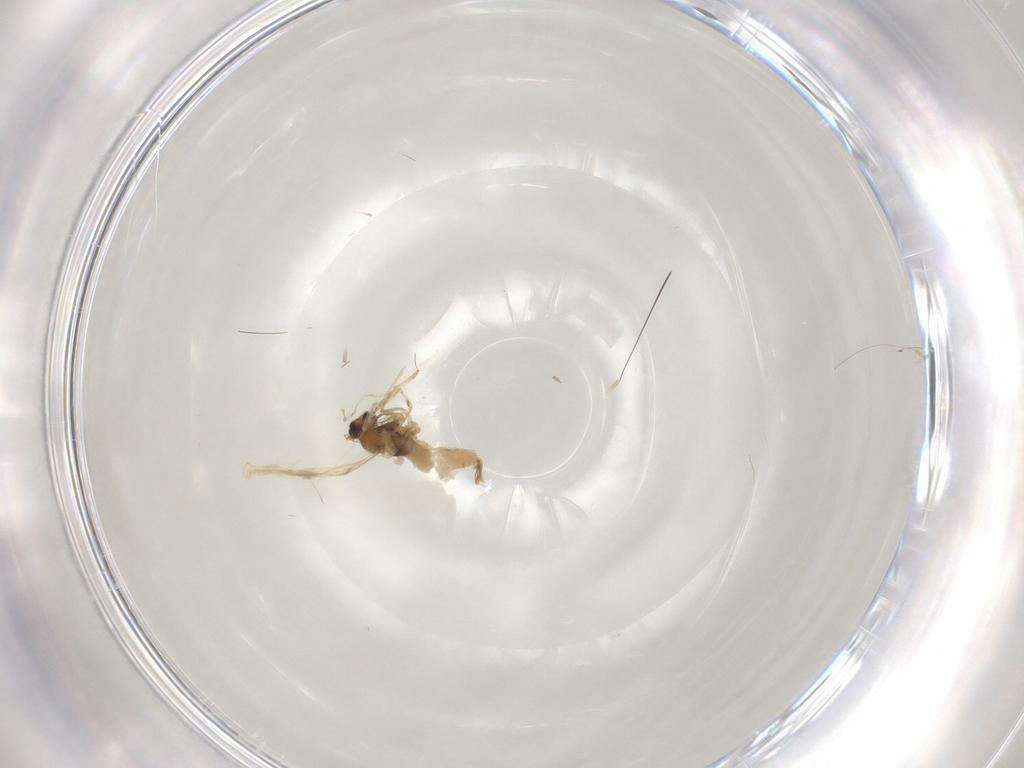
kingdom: Animalia
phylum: Arthropoda
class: Insecta
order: Diptera
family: Cecidomyiidae
